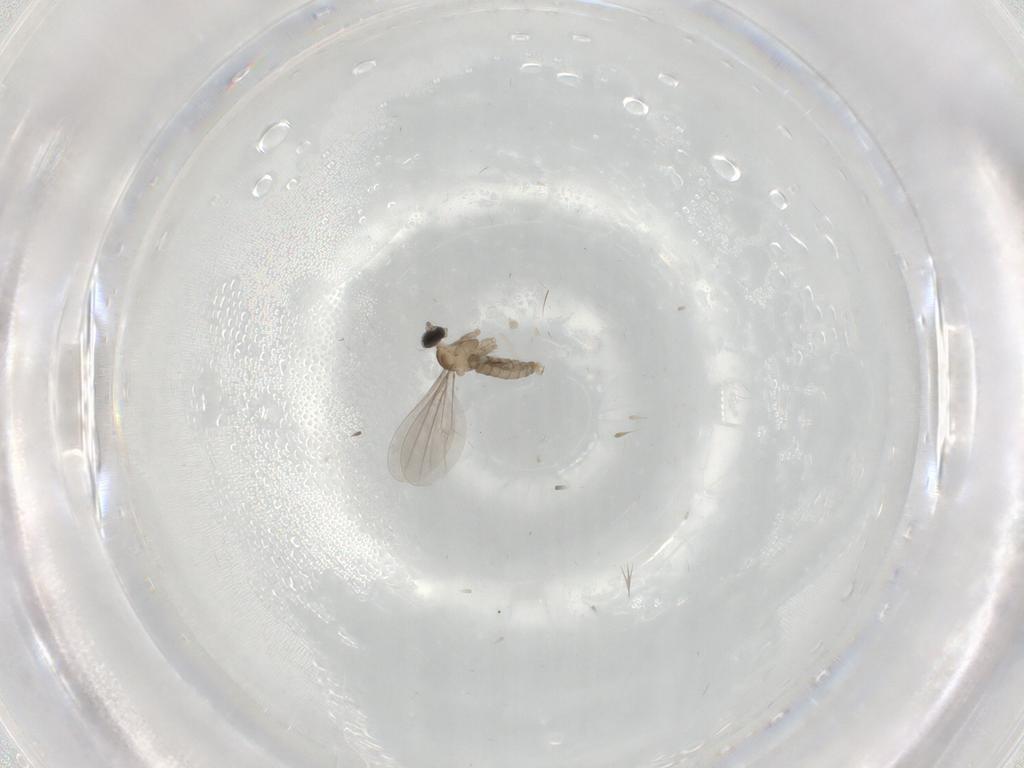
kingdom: Animalia
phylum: Arthropoda
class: Insecta
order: Diptera
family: Cecidomyiidae
